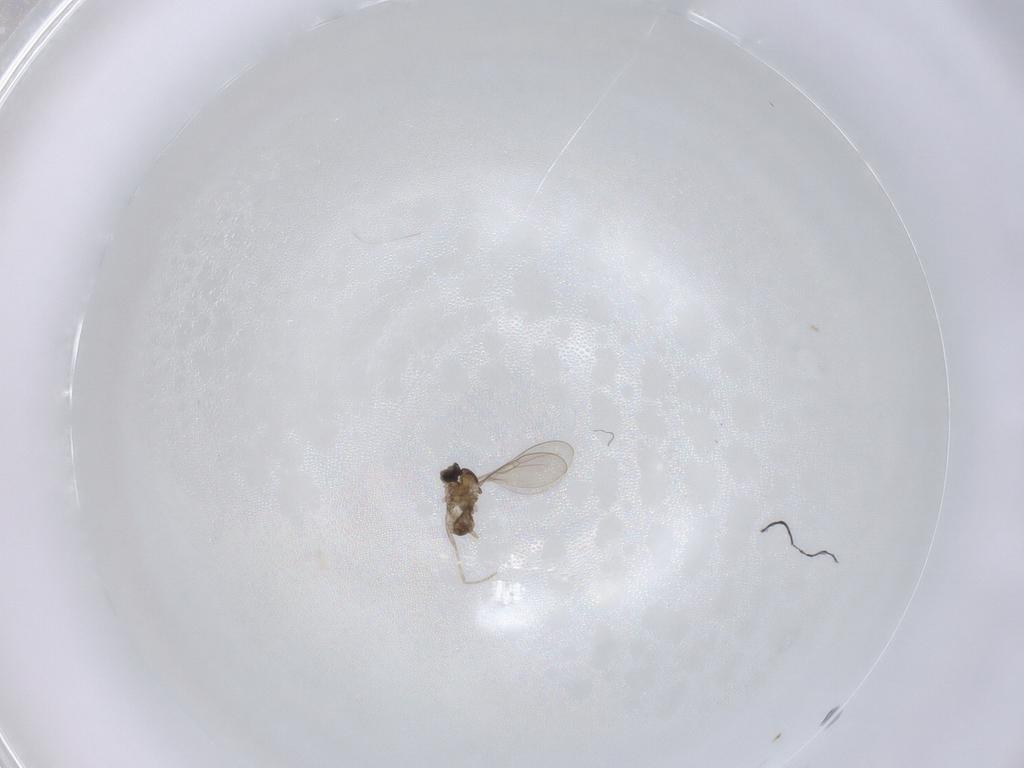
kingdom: Animalia
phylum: Arthropoda
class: Insecta
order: Diptera
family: Cecidomyiidae
